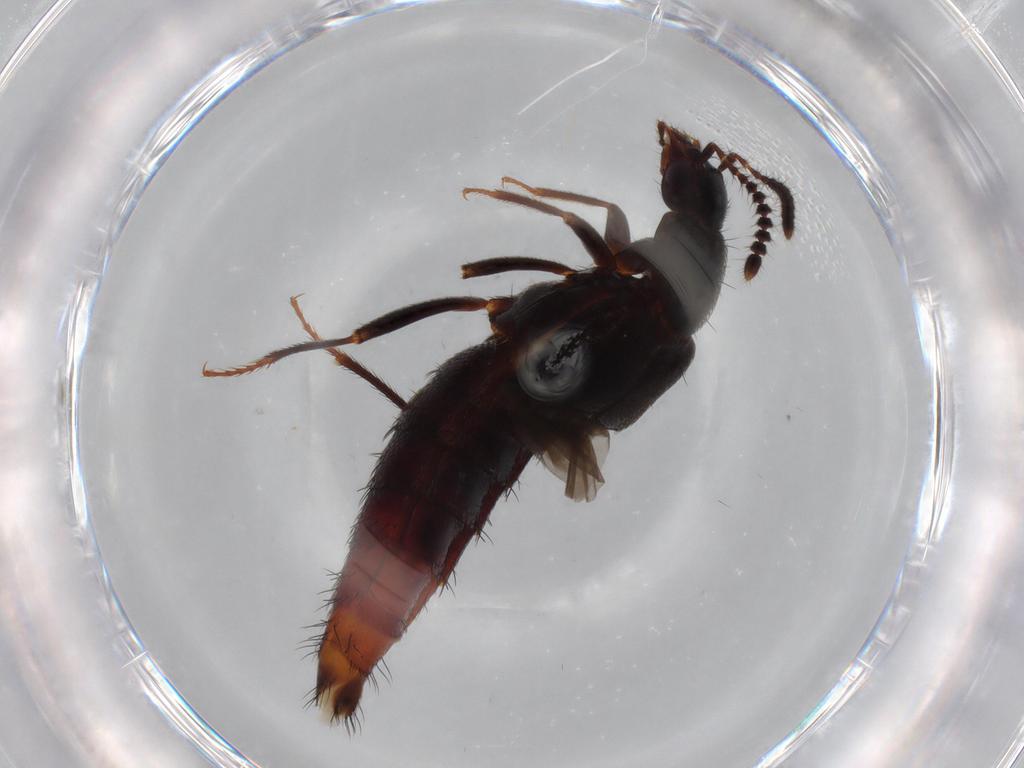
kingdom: Animalia
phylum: Arthropoda
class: Insecta
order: Coleoptera
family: Staphylinidae
